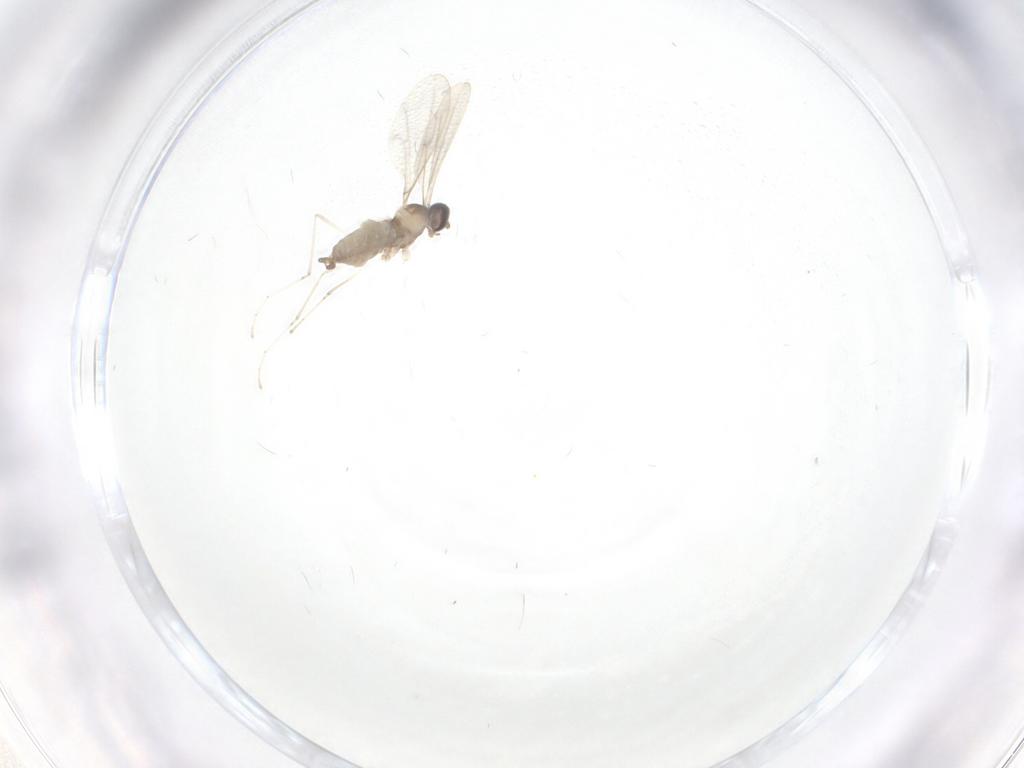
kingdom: Animalia
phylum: Arthropoda
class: Insecta
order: Diptera
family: Cecidomyiidae
